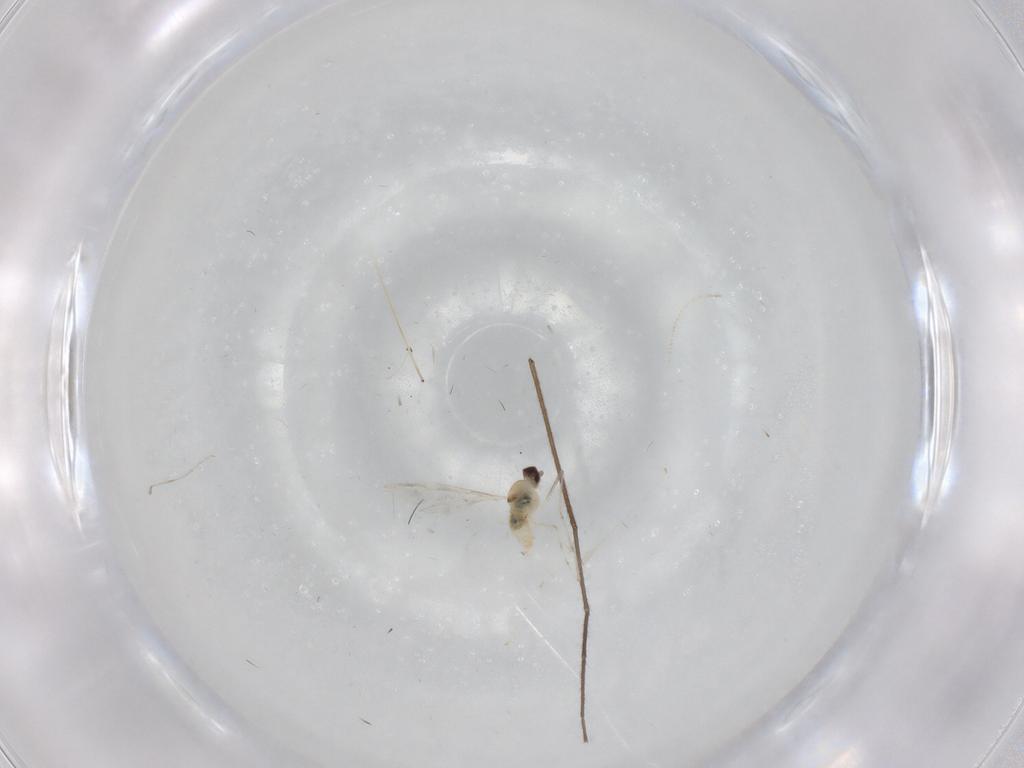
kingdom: Animalia
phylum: Arthropoda
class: Insecta
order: Diptera
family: Cecidomyiidae
